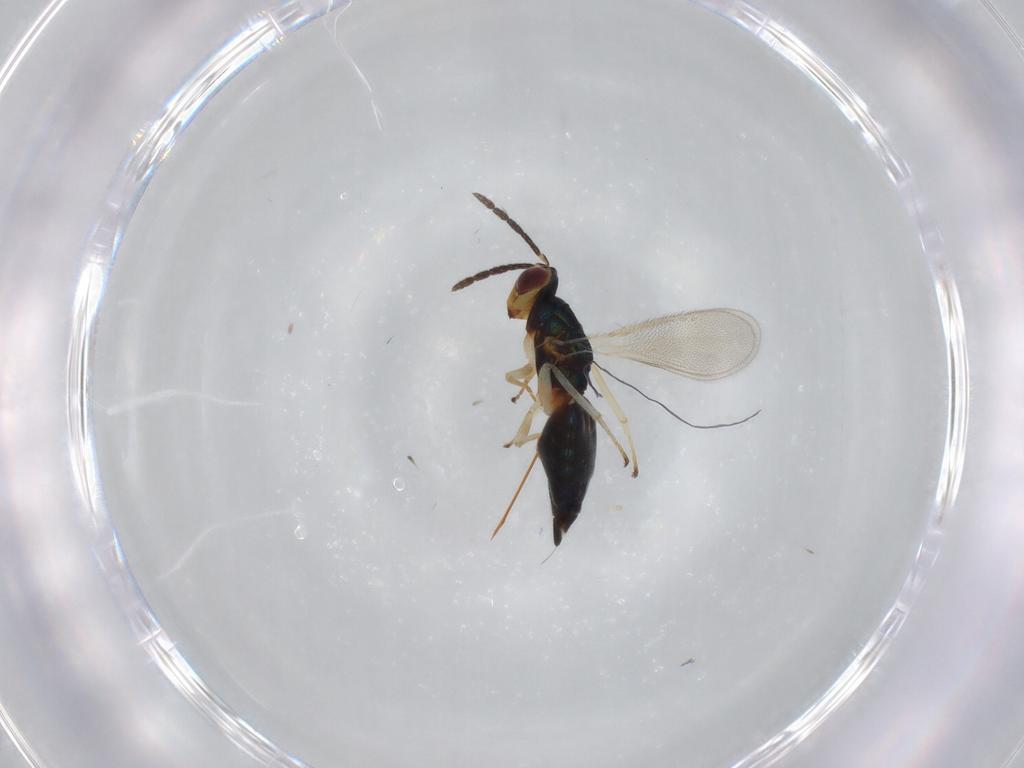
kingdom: Animalia
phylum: Arthropoda
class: Insecta
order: Hymenoptera
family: Eulophidae
